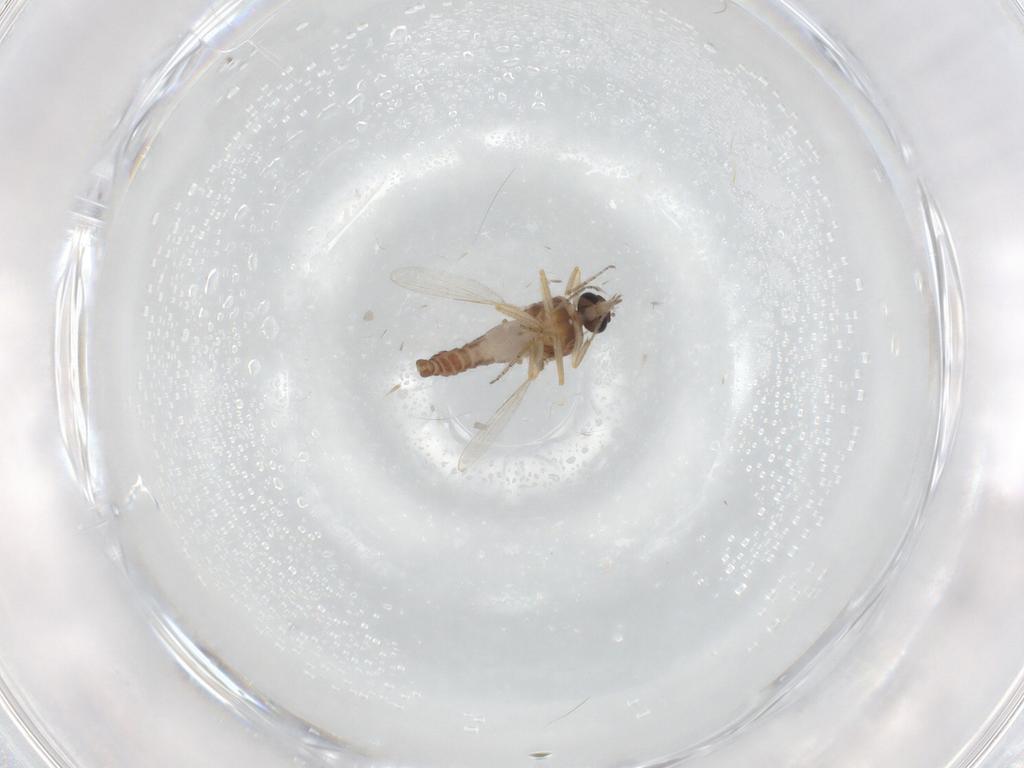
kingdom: Animalia
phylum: Arthropoda
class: Insecta
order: Diptera
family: Ceratopogonidae
